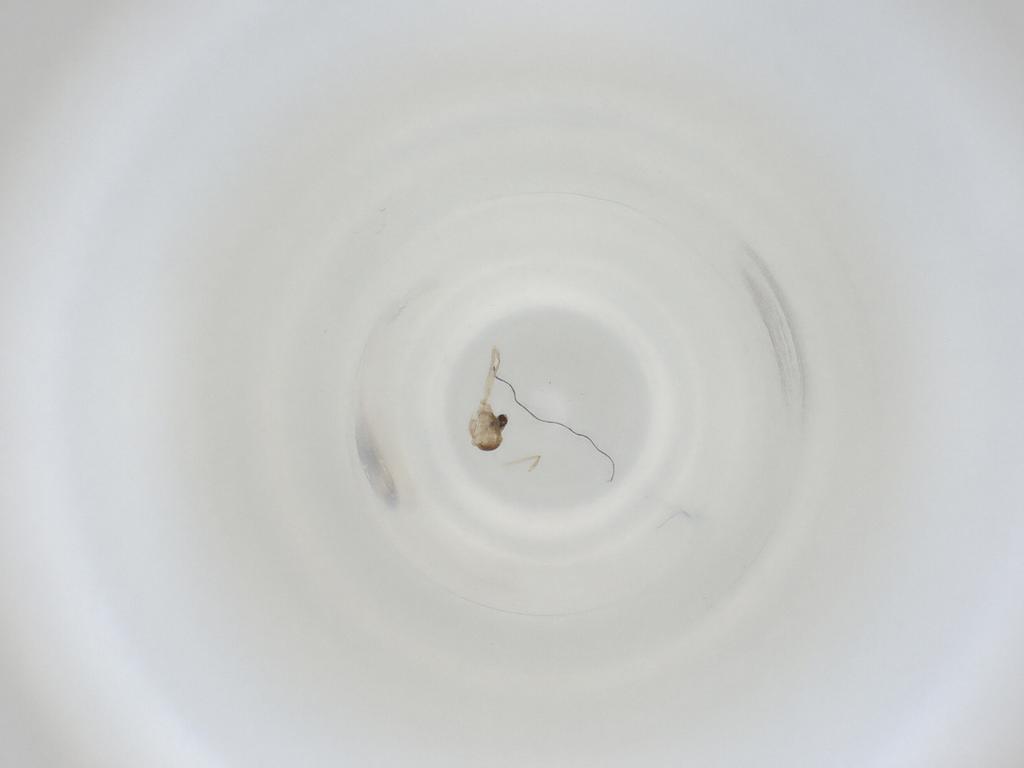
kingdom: Animalia
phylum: Arthropoda
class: Insecta
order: Diptera
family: Cecidomyiidae
